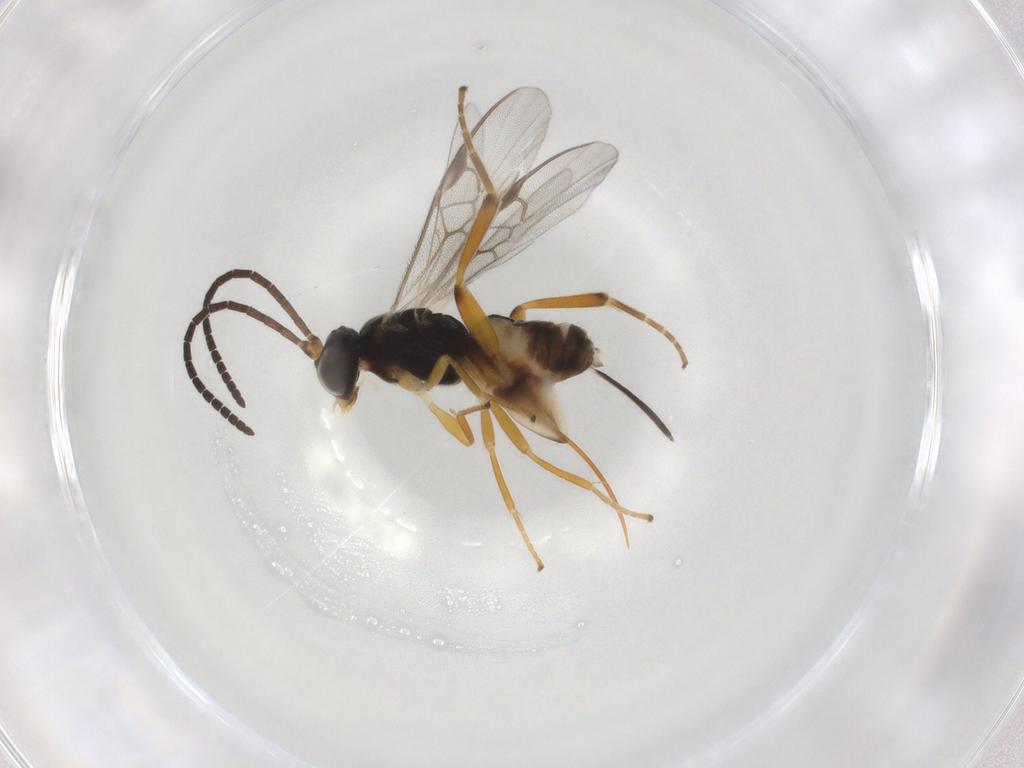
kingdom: Animalia
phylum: Arthropoda
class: Insecta
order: Hymenoptera
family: Braconidae
